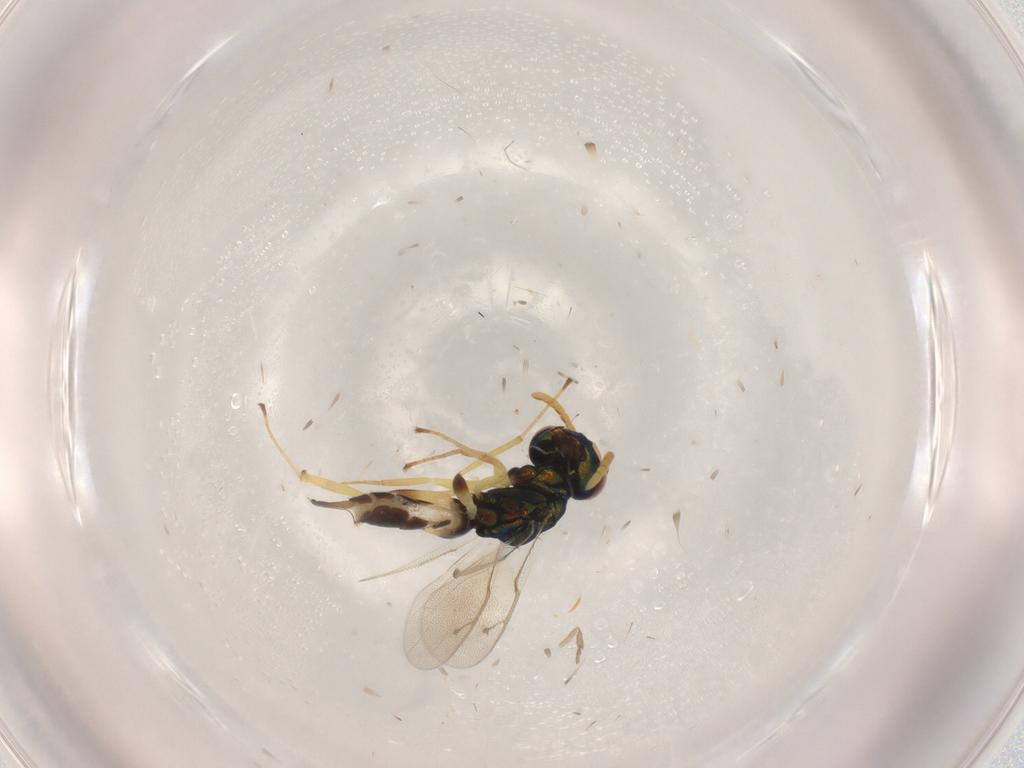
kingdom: Animalia
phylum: Arthropoda
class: Insecta
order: Hymenoptera
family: Pteromalidae
